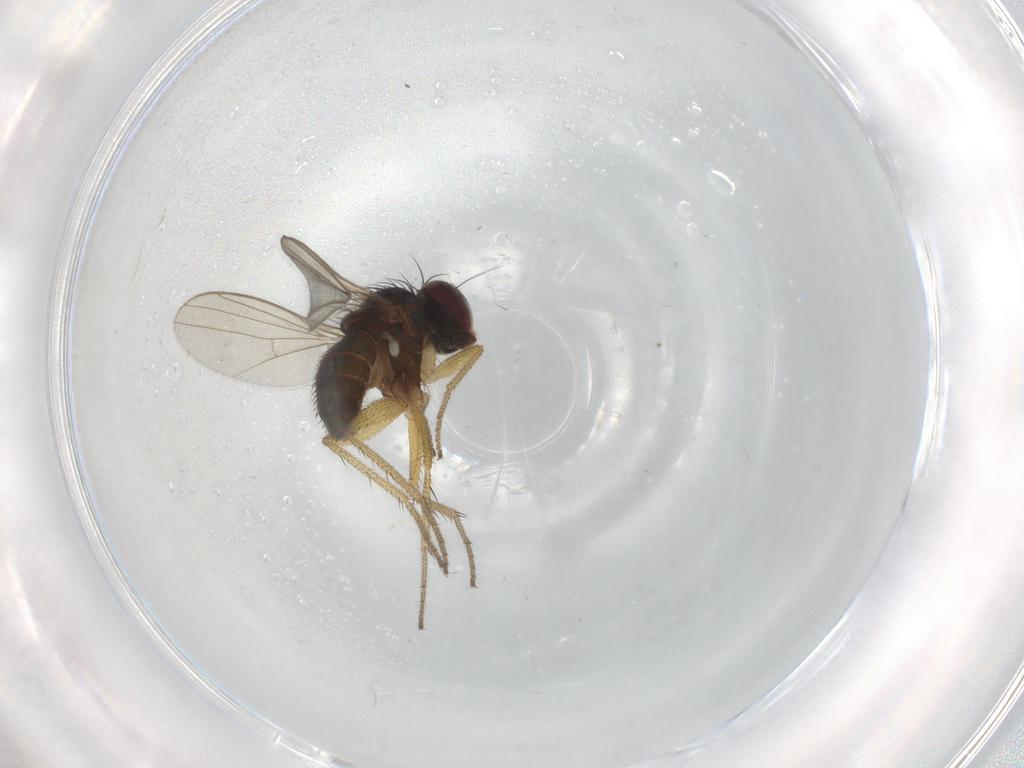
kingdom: Animalia
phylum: Arthropoda
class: Insecta
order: Diptera
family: Dolichopodidae
